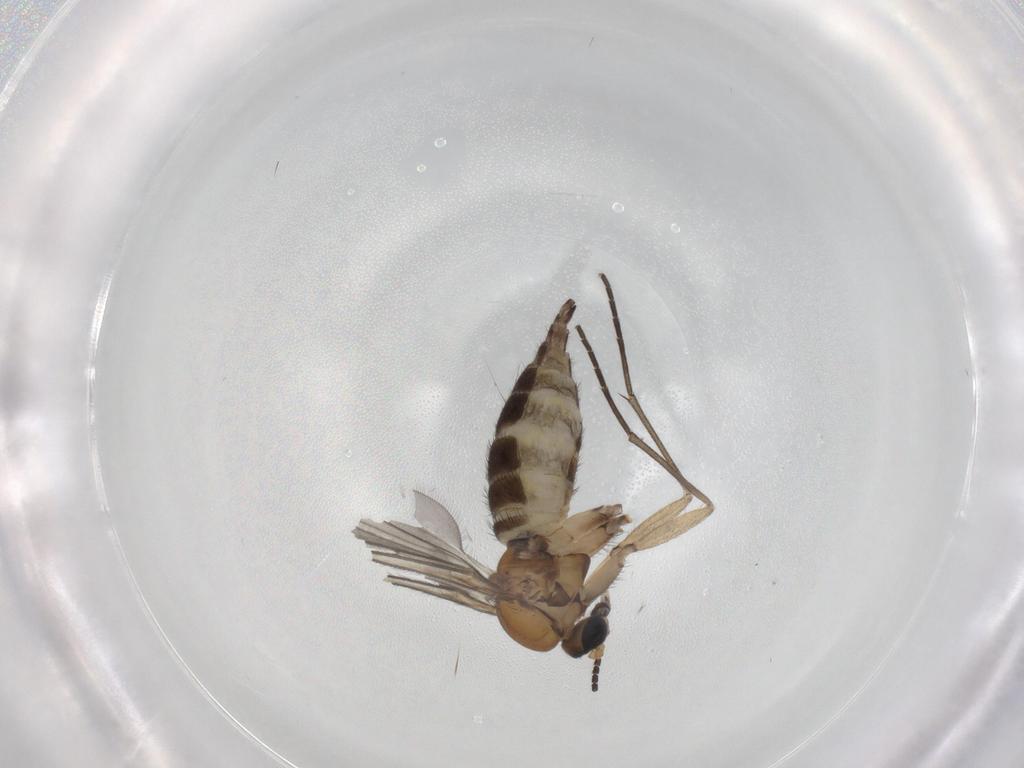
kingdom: Animalia
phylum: Arthropoda
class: Insecta
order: Diptera
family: Sciaridae
